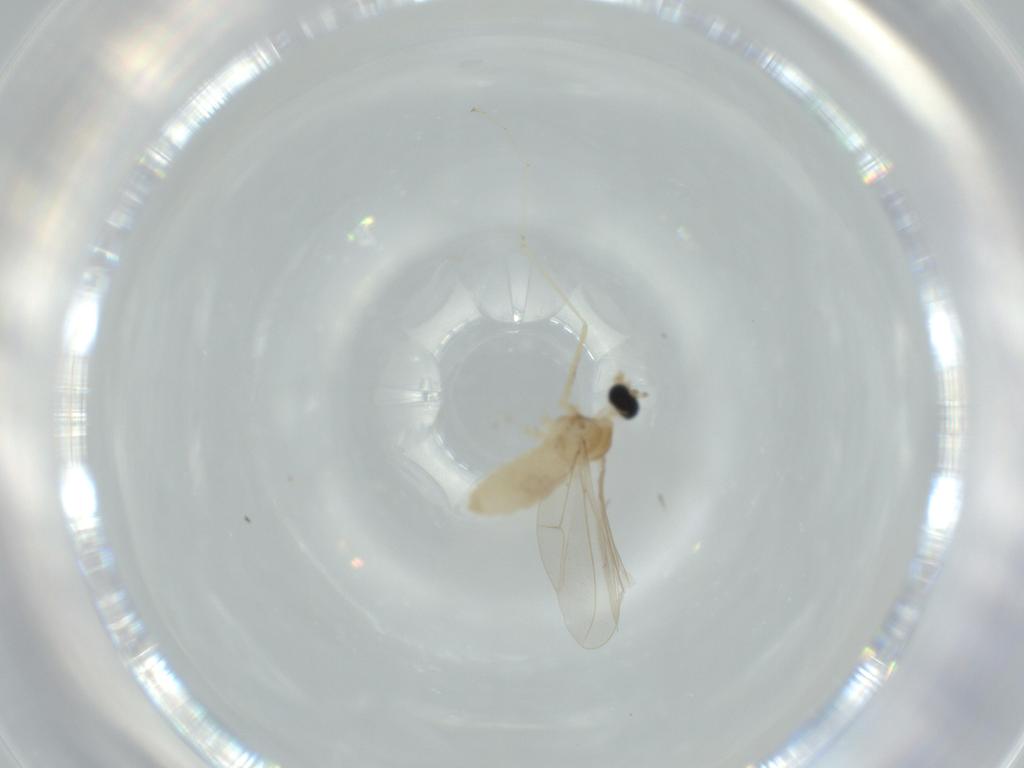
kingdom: Animalia
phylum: Arthropoda
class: Insecta
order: Diptera
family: Cecidomyiidae
